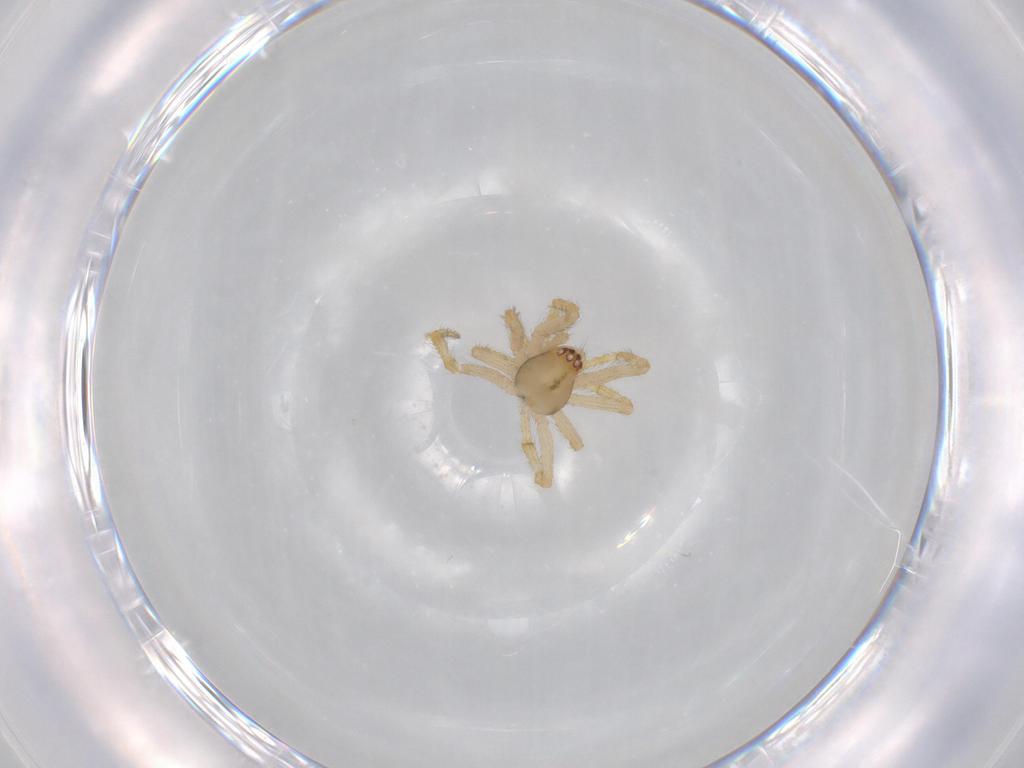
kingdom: Animalia
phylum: Arthropoda
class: Arachnida
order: Araneae
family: Theridiidae
